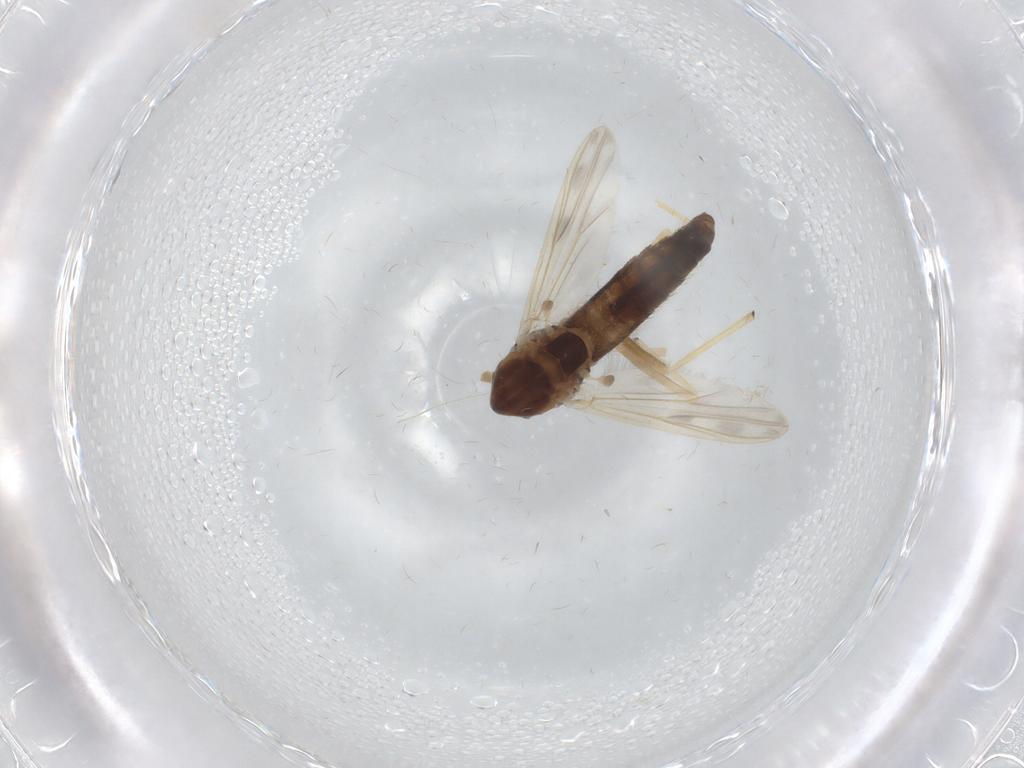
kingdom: Animalia
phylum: Arthropoda
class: Insecta
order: Diptera
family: Chironomidae
